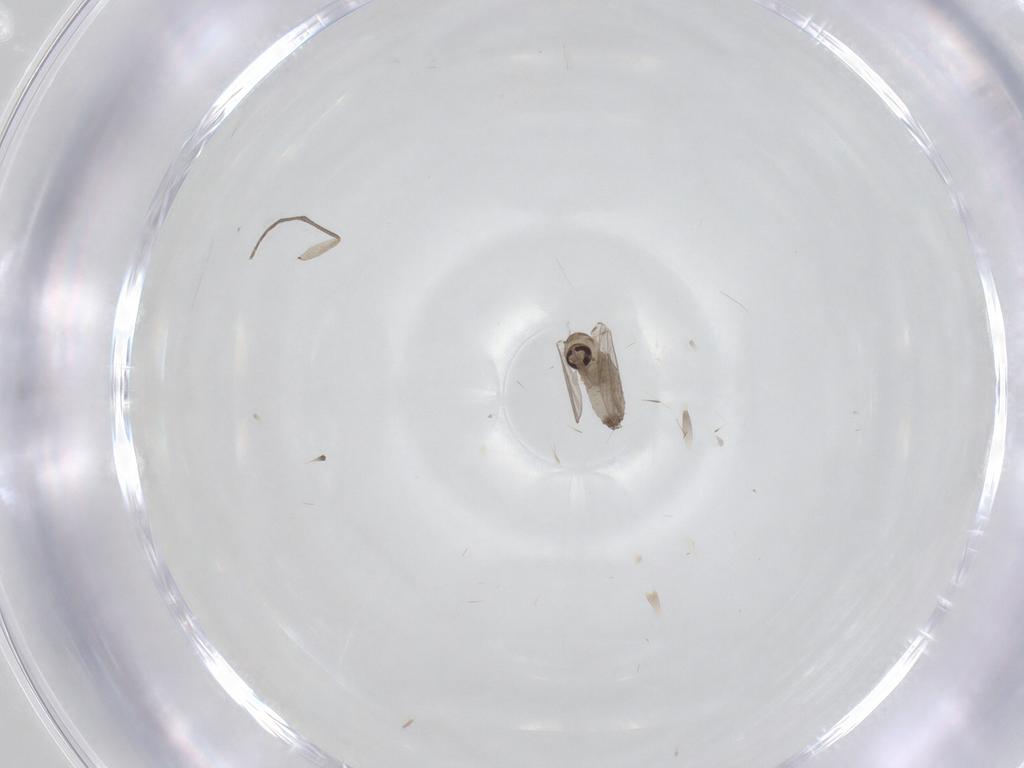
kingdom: Animalia
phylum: Arthropoda
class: Insecta
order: Diptera
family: Psychodidae
